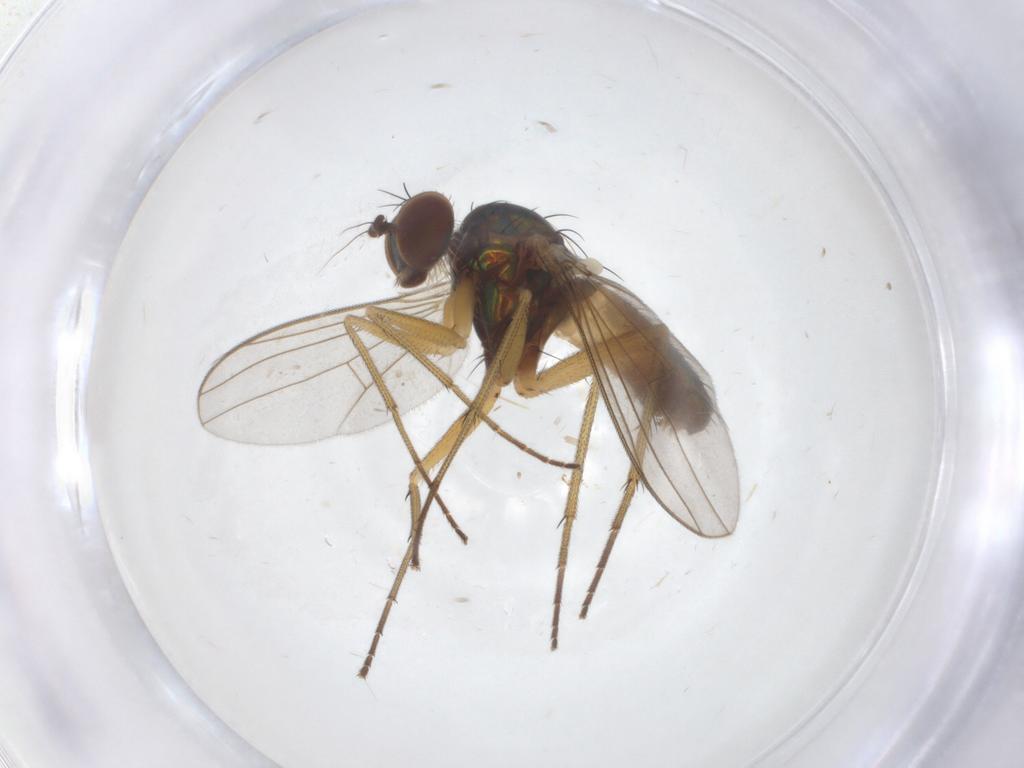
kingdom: Animalia
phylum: Arthropoda
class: Insecta
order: Diptera
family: Cecidomyiidae
